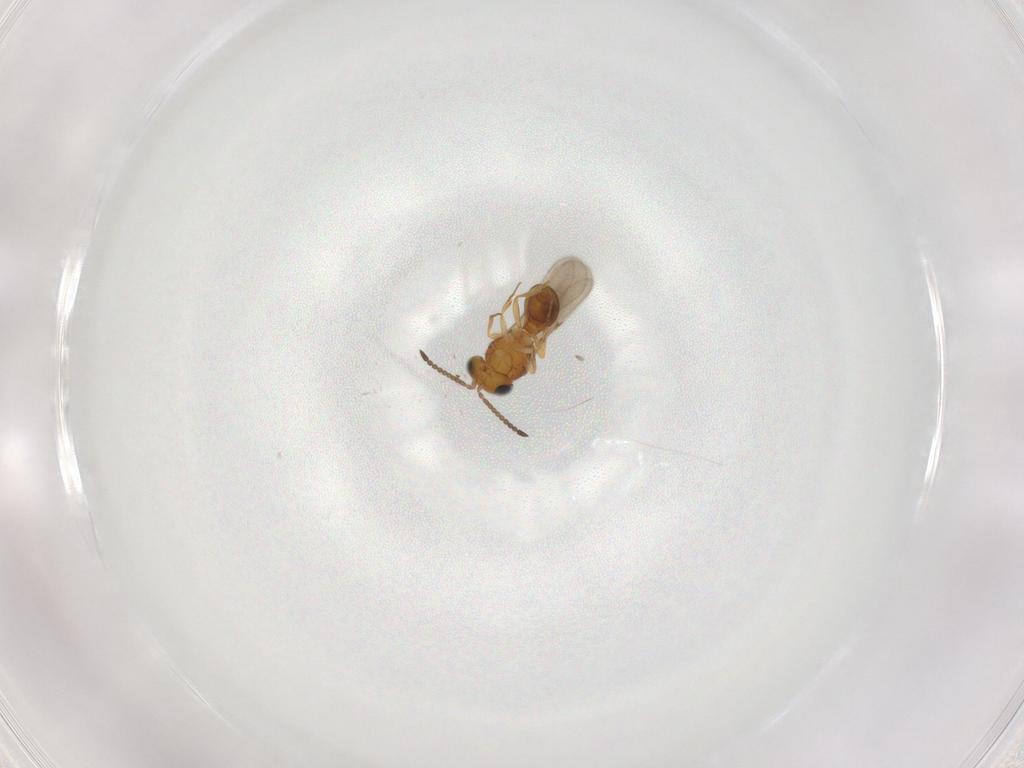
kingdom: Animalia
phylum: Arthropoda
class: Insecta
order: Hymenoptera
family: Scelionidae
